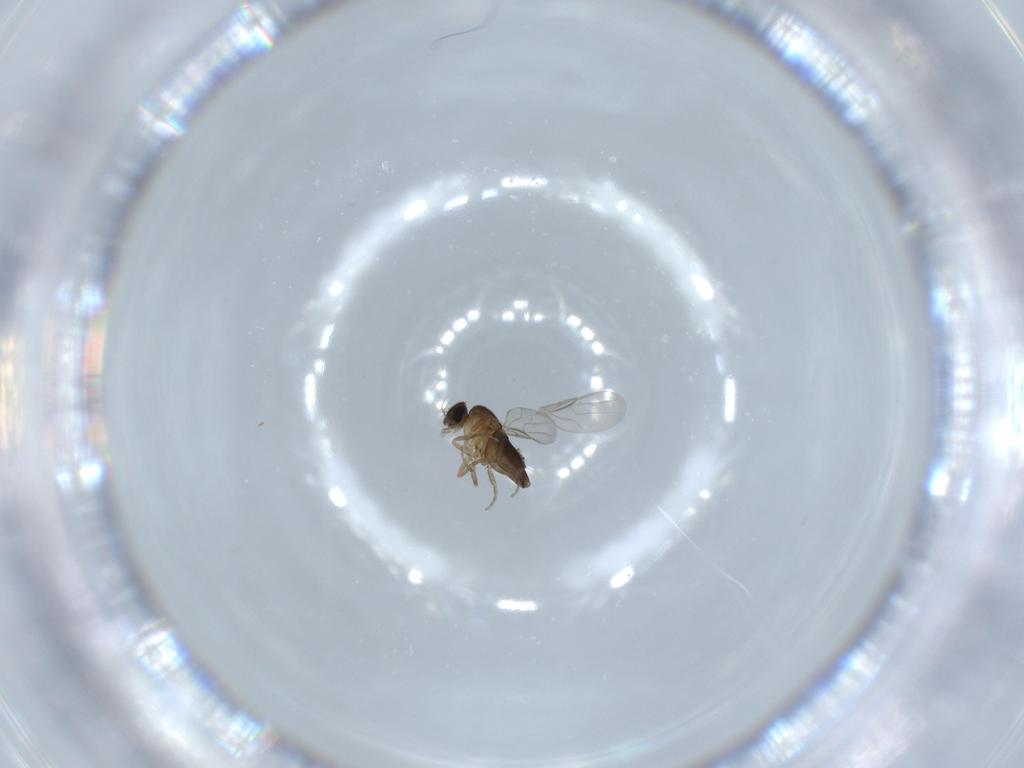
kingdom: Animalia
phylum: Arthropoda
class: Insecta
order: Diptera
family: Phoridae
